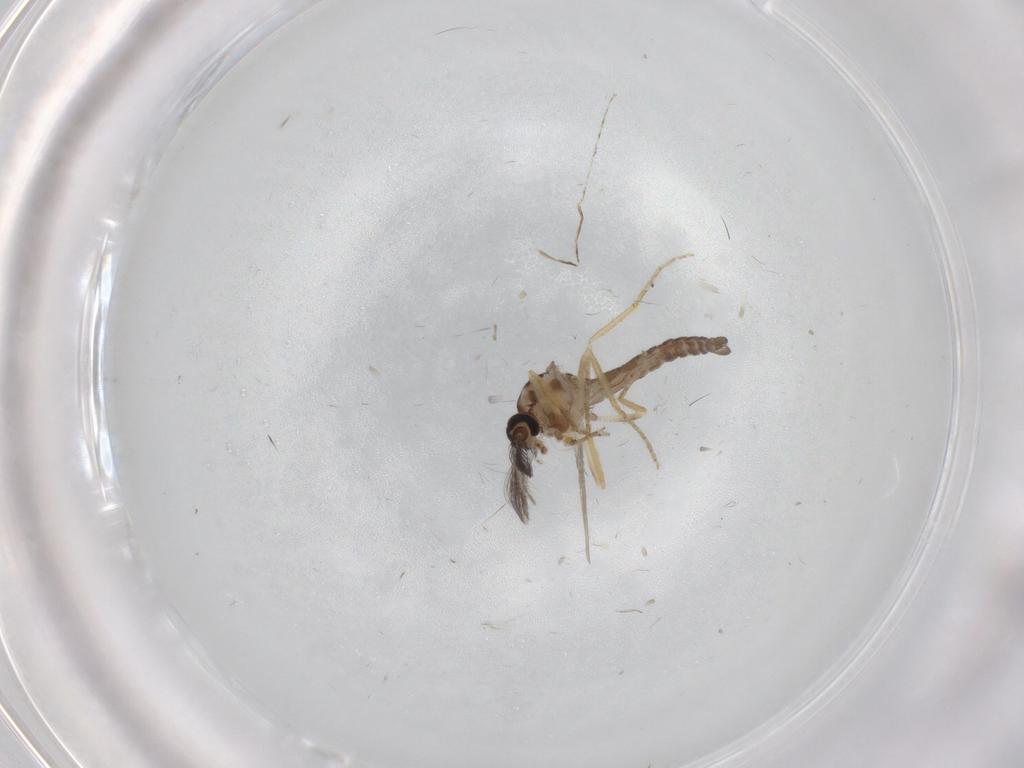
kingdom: Animalia
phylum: Arthropoda
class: Insecta
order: Diptera
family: Ceratopogonidae
